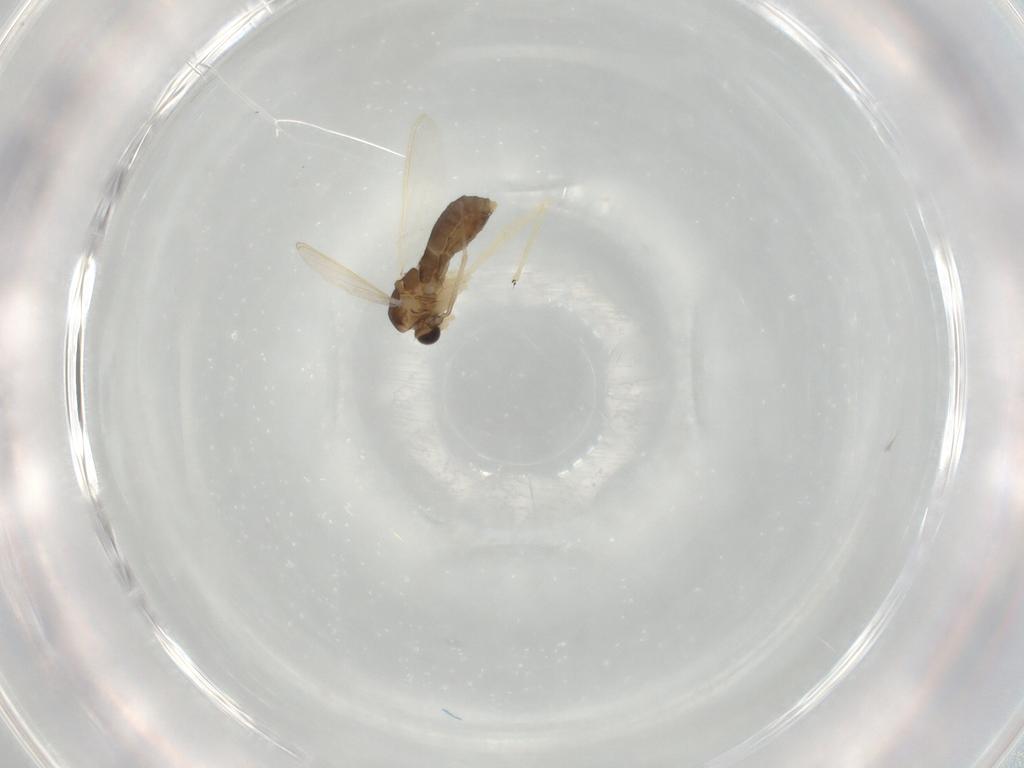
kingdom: Animalia
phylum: Arthropoda
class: Insecta
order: Diptera
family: Chironomidae
